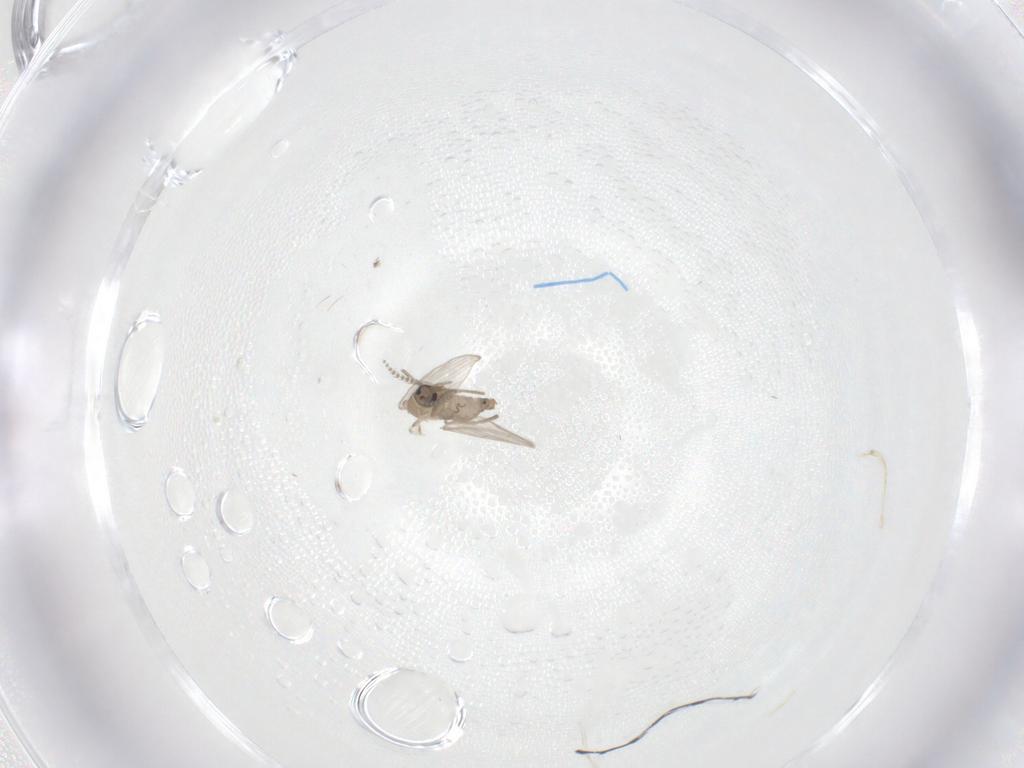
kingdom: Animalia
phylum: Arthropoda
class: Insecta
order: Diptera
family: Psychodidae
